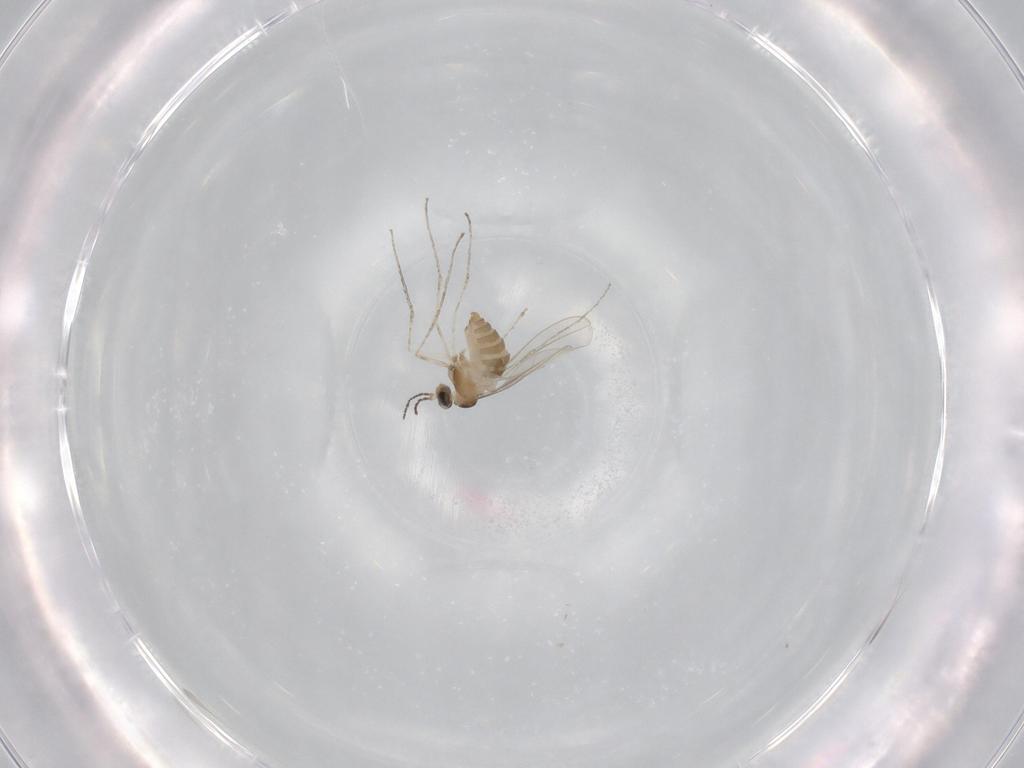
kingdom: Animalia
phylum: Arthropoda
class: Insecta
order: Diptera
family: Cecidomyiidae
